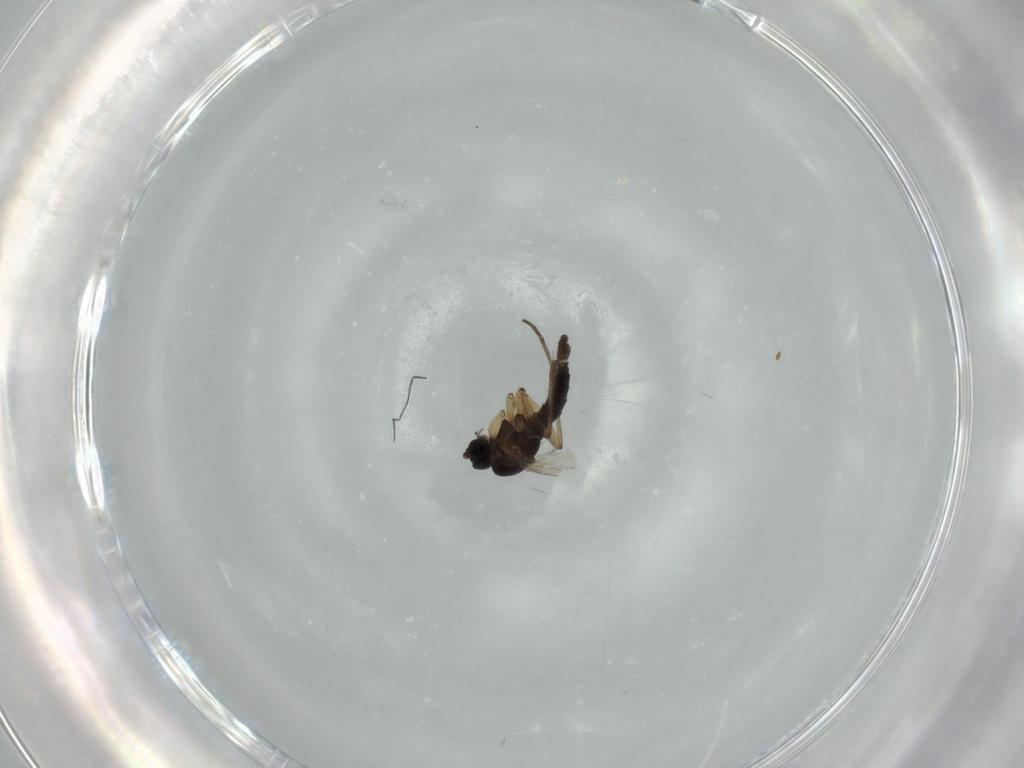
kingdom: Animalia
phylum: Arthropoda
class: Insecta
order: Diptera
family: Sciaridae
